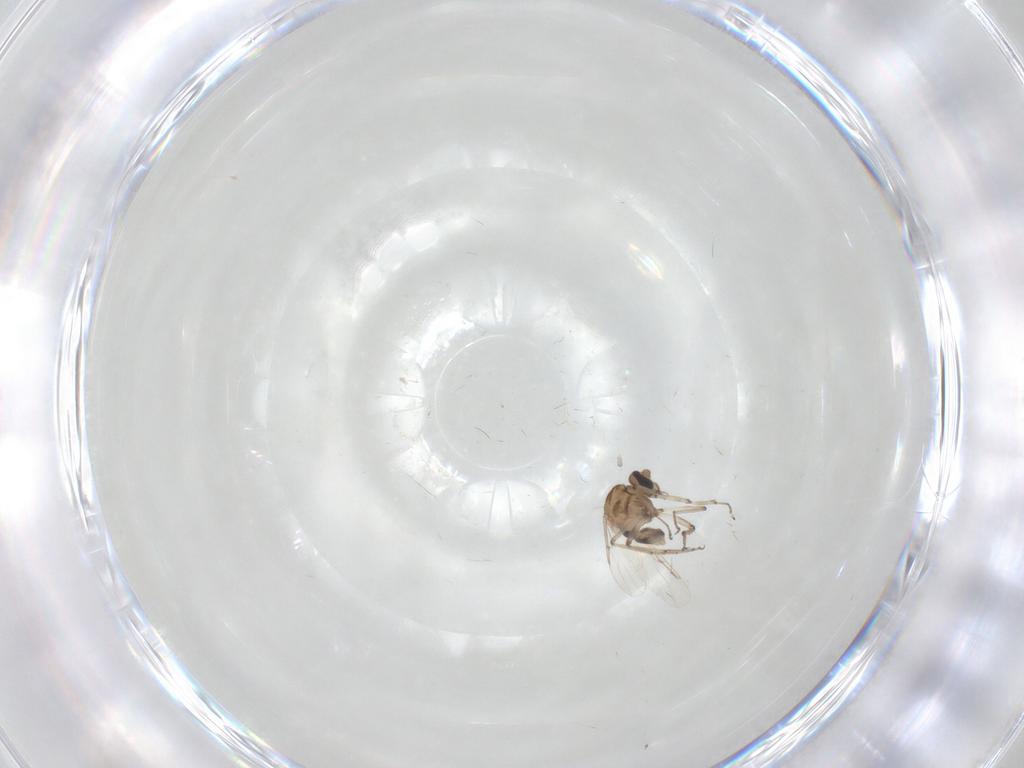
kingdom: Animalia
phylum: Arthropoda
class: Insecta
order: Diptera
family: Ceratopogonidae
